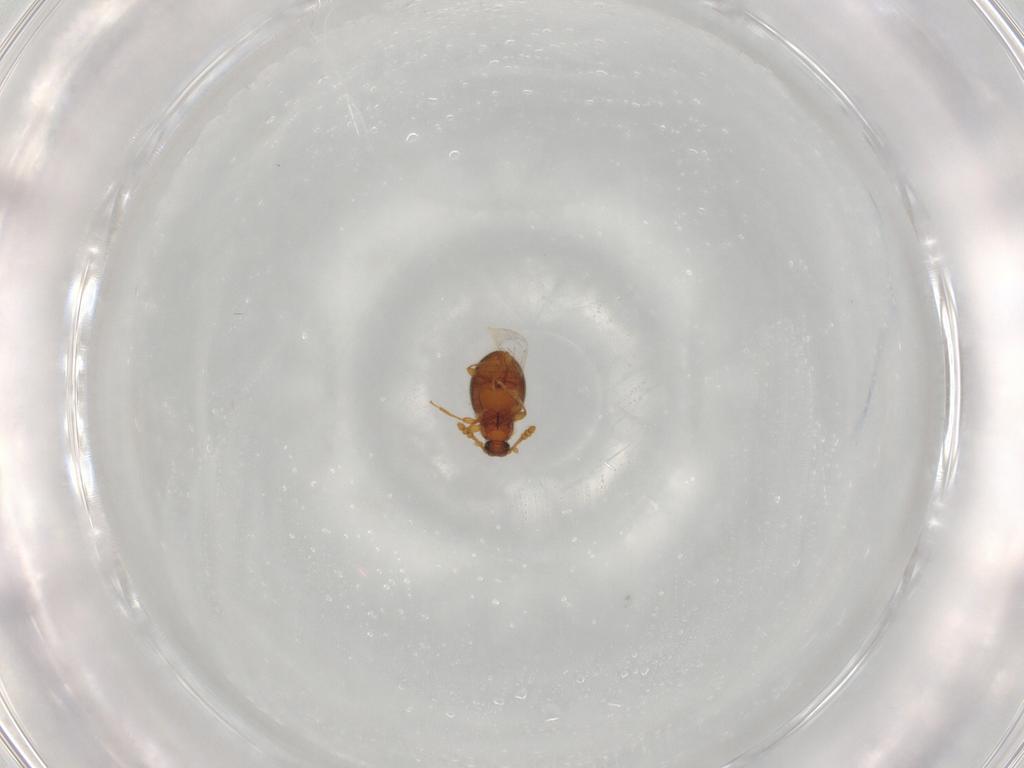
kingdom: Animalia
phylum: Arthropoda
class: Insecta
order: Coleoptera
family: Staphylinidae
